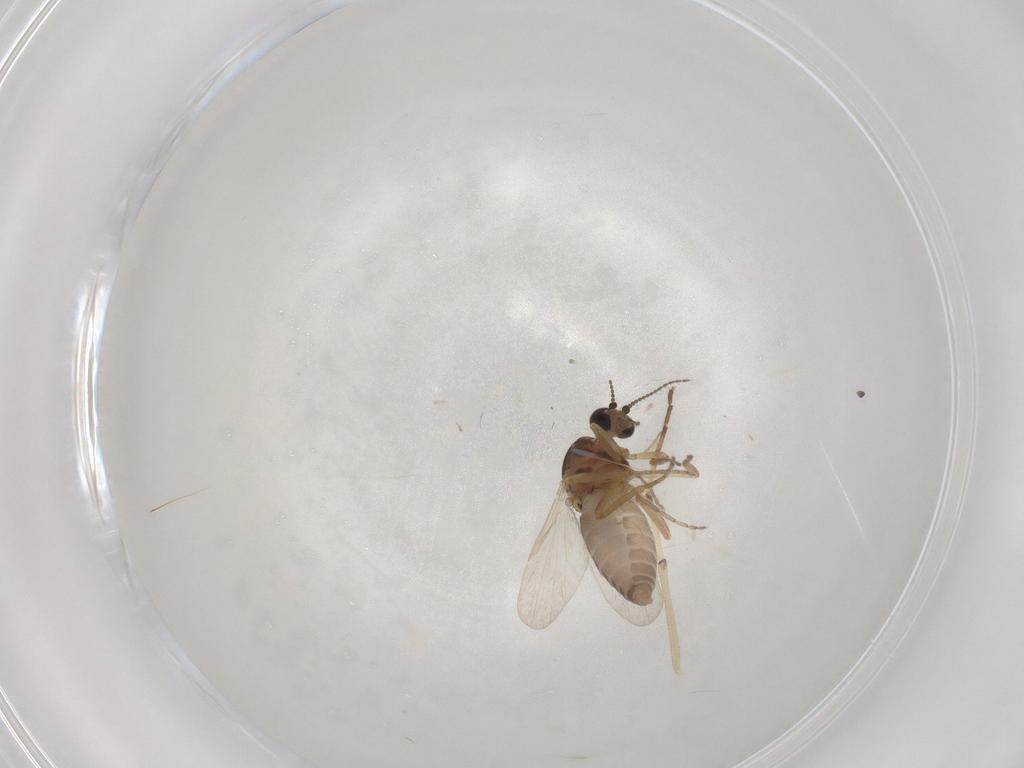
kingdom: Animalia
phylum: Arthropoda
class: Insecta
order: Diptera
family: Ceratopogonidae
